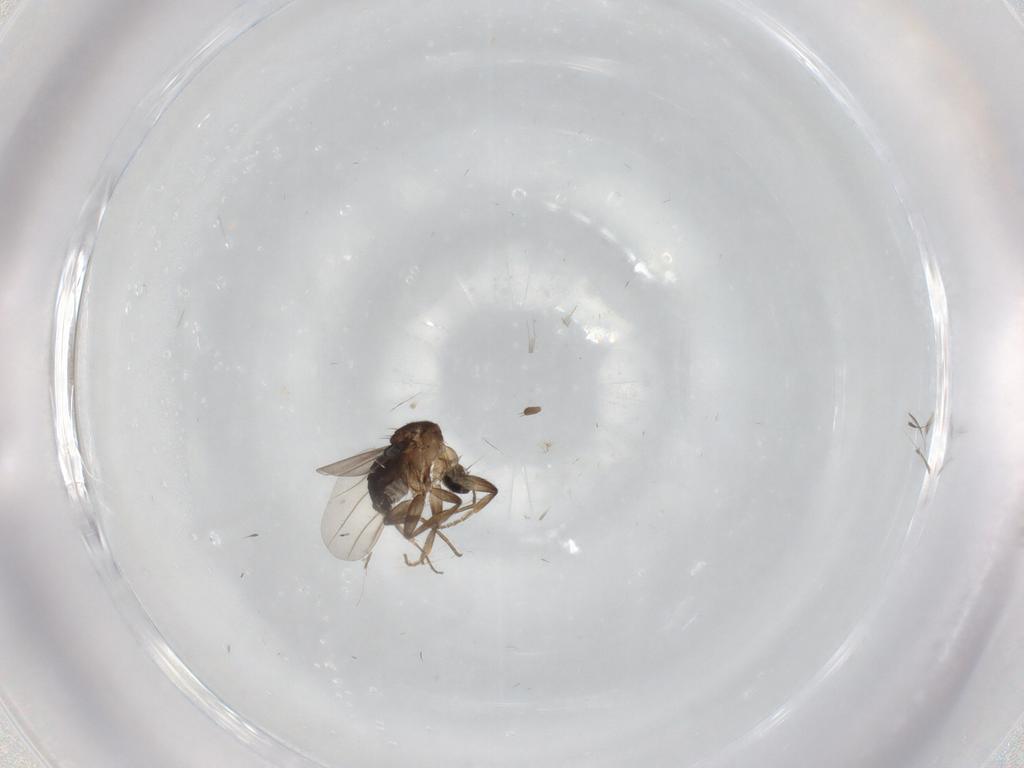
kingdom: Animalia
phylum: Arthropoda
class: Insecta
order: Diptera
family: Phoridae
